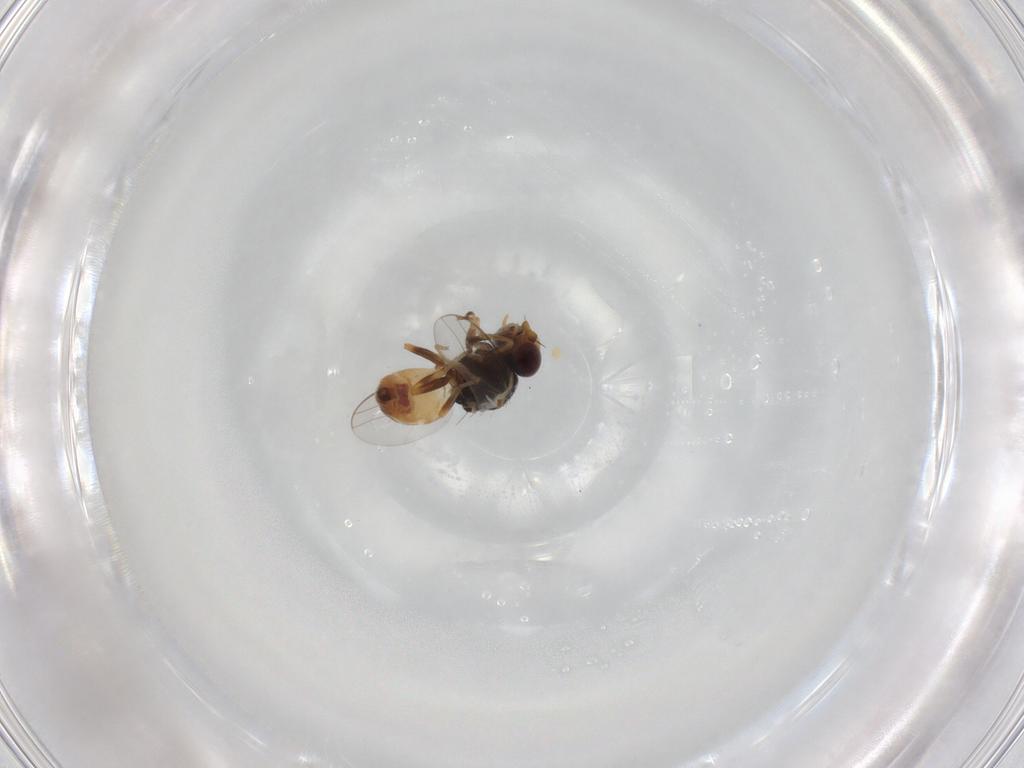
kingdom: Animalia
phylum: Arthropoda
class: Insecta
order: Diptera
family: Chloropidae
